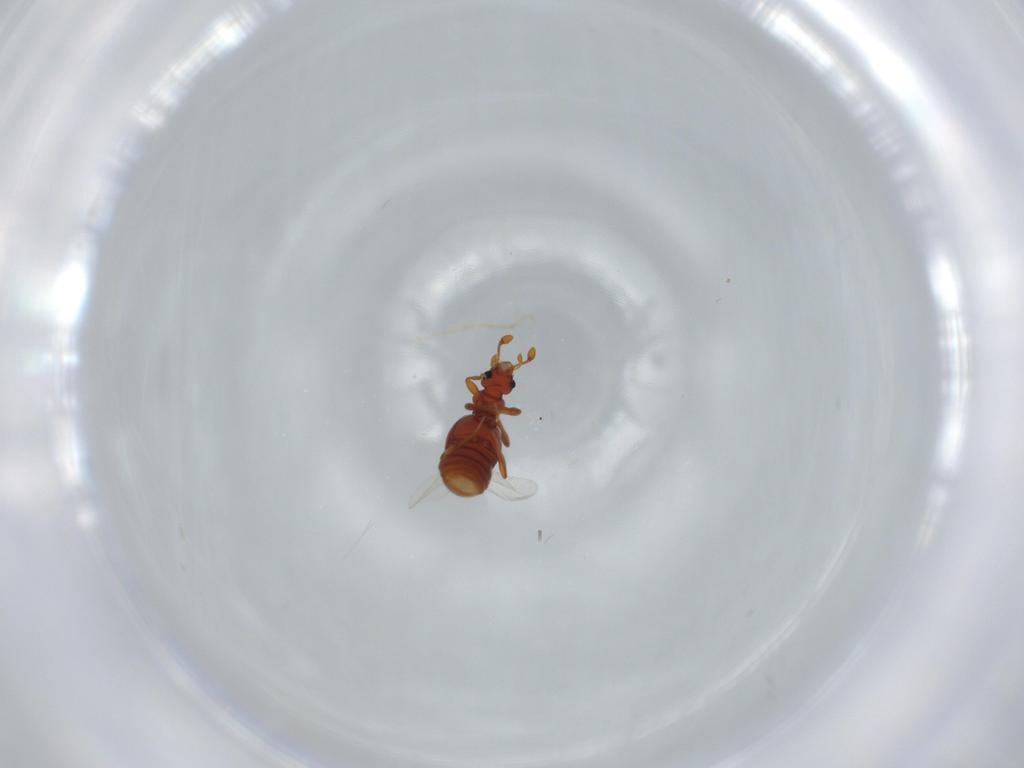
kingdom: Animalia
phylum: Arthropoda
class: Insecta
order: Coleoptera
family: Staphylinidae
